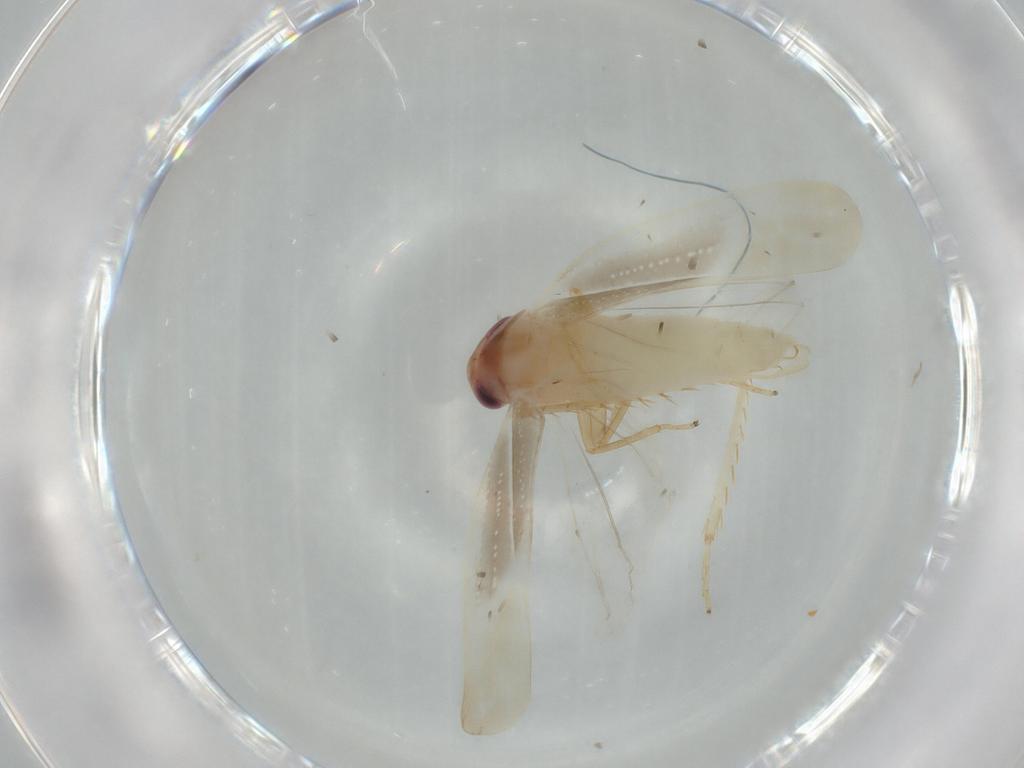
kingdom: Animalia
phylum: Arthropoda
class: Insecta
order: Hemiptera
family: Cicadellidae
